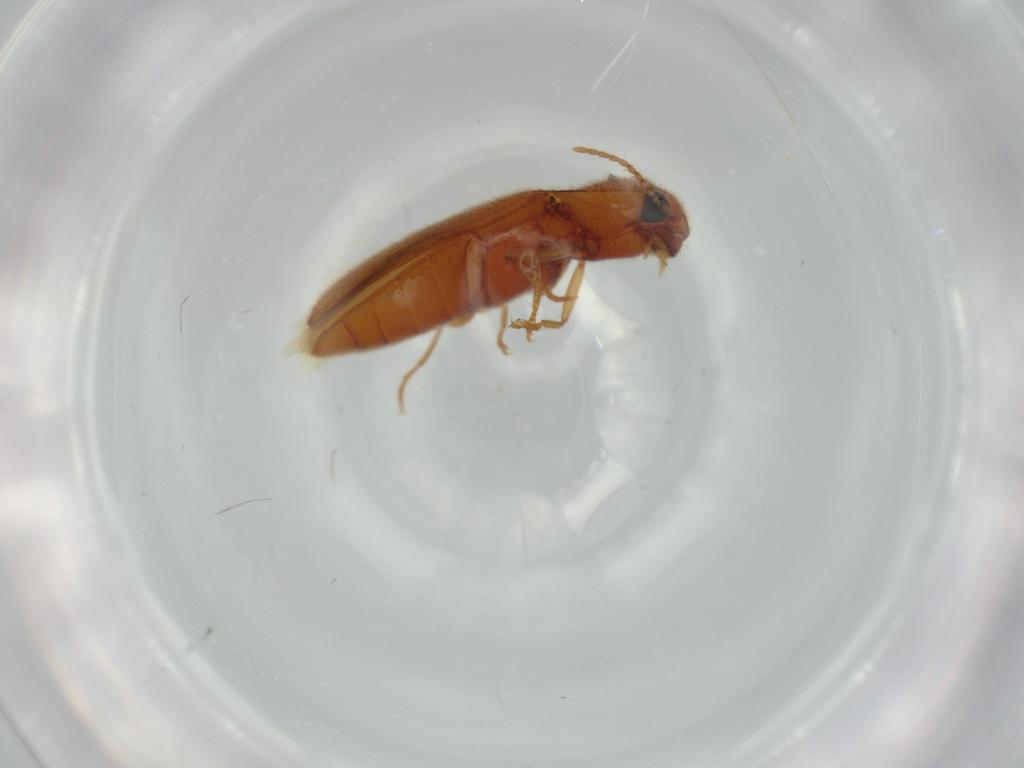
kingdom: Animalia
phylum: Arthropoda
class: Insecta
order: Coleoptera
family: Elateridae
